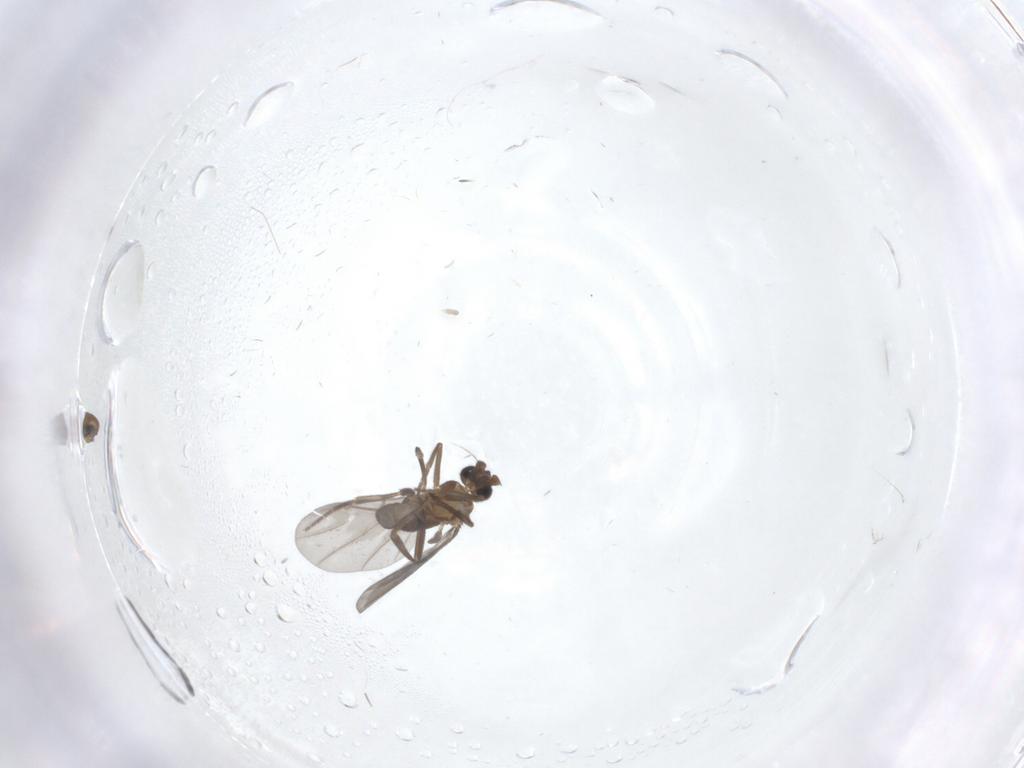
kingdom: Animalia
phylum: Arthropoda
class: Insecta
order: Diptera
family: Phoridae
